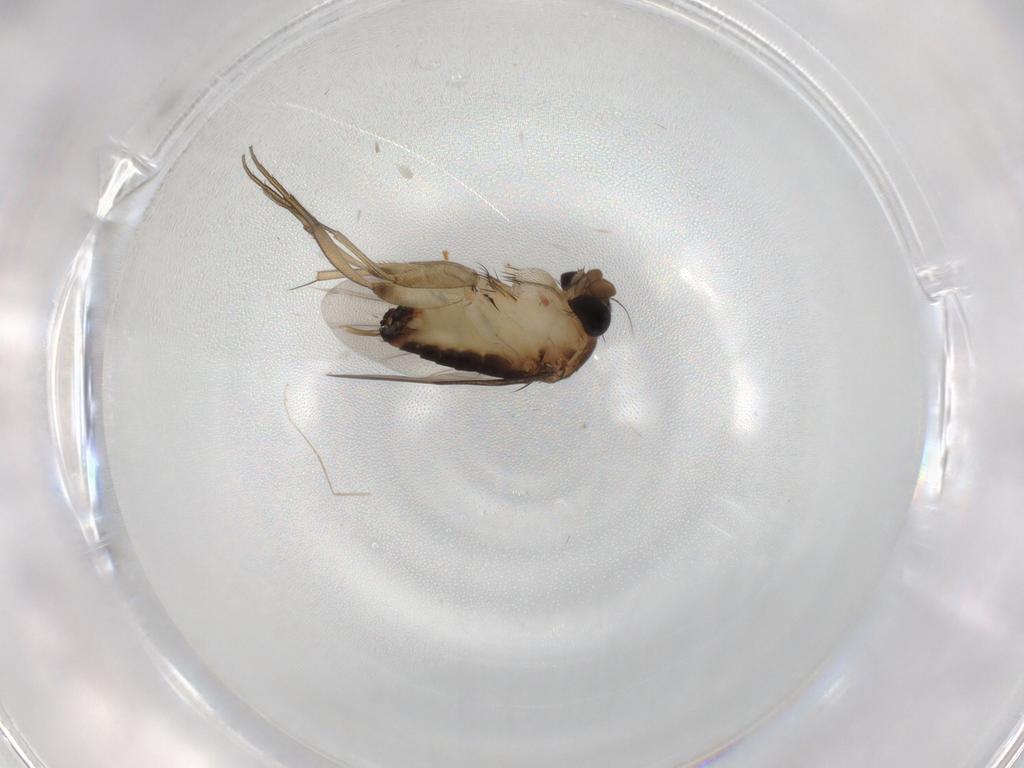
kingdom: Animalia
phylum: Arthropoda
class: Insecta
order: Diptera
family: Phoridae
